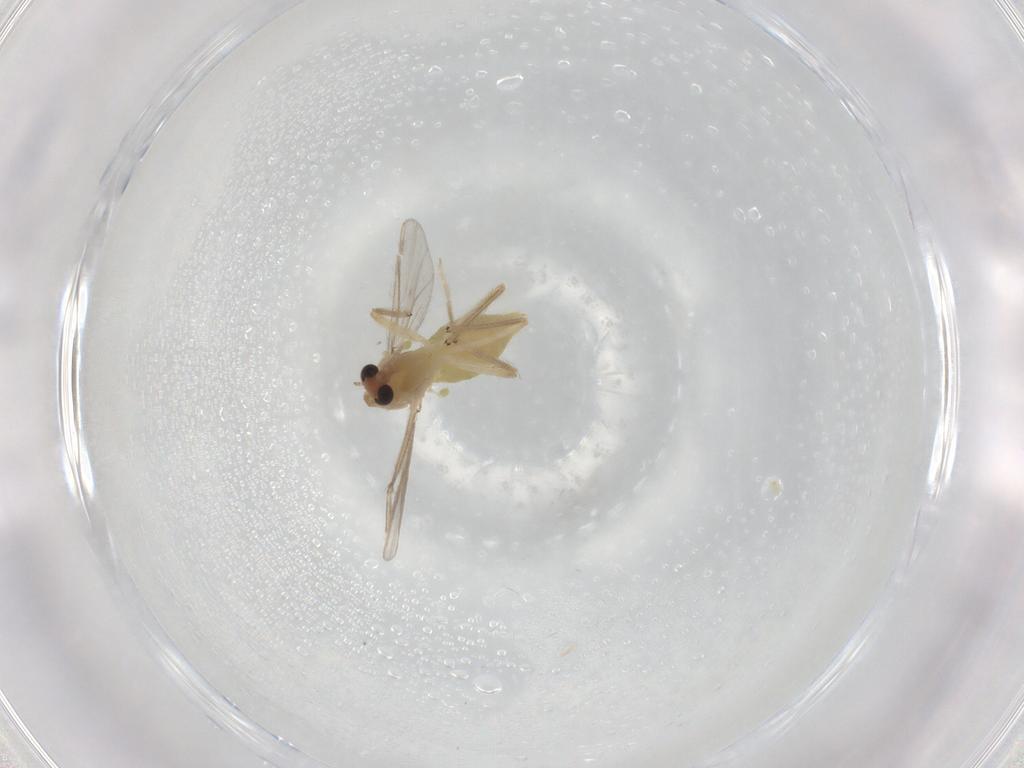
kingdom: Animalia
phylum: Arthropoda
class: Insecta
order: Diptera
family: Chironomidae
